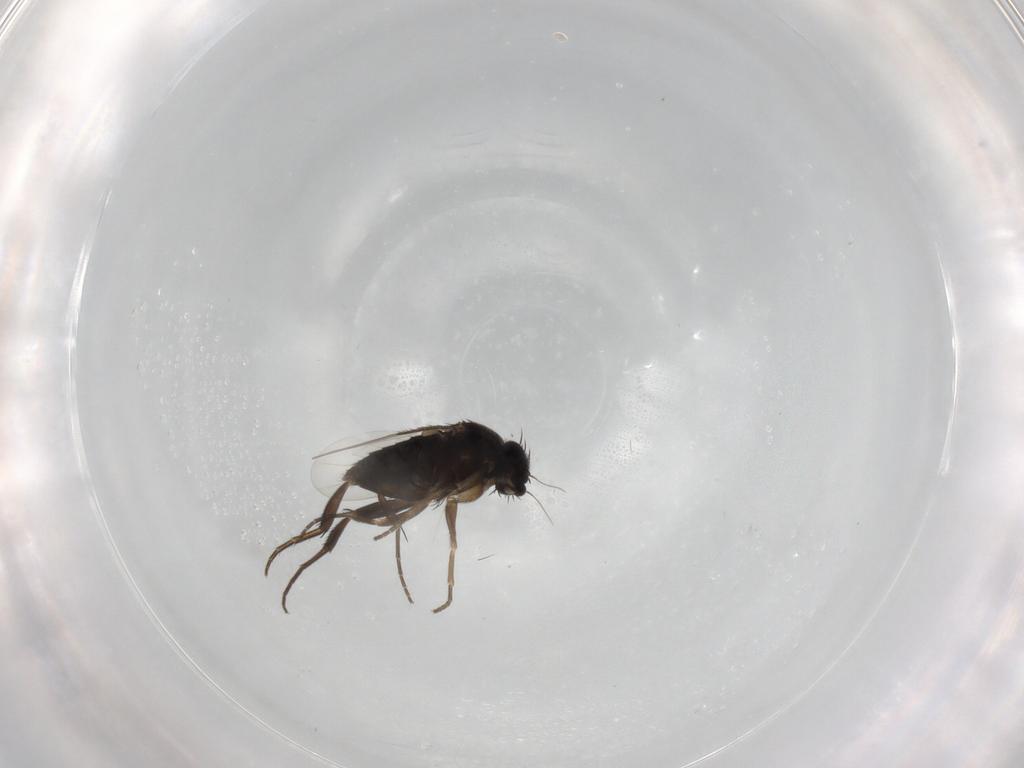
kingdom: Animalia
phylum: Arthropoda
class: Insecta
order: Diptera
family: Phoridae
